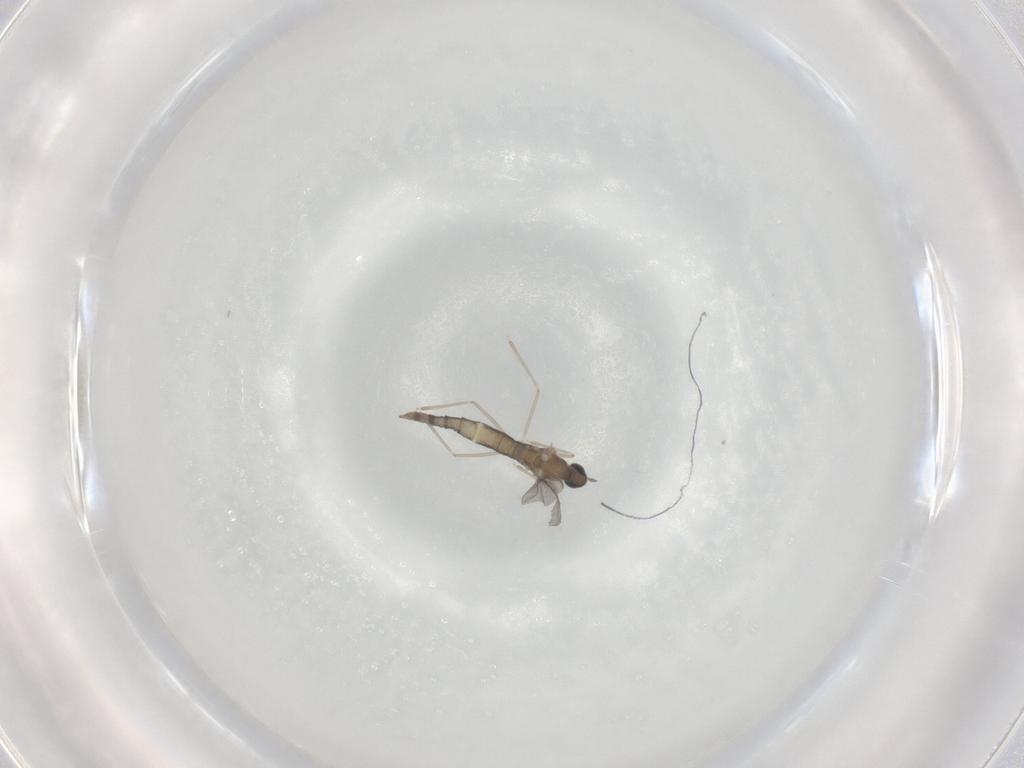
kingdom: Animalia
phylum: Arthropoda
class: Insecta
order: Diptera
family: Cecidomyiidae
